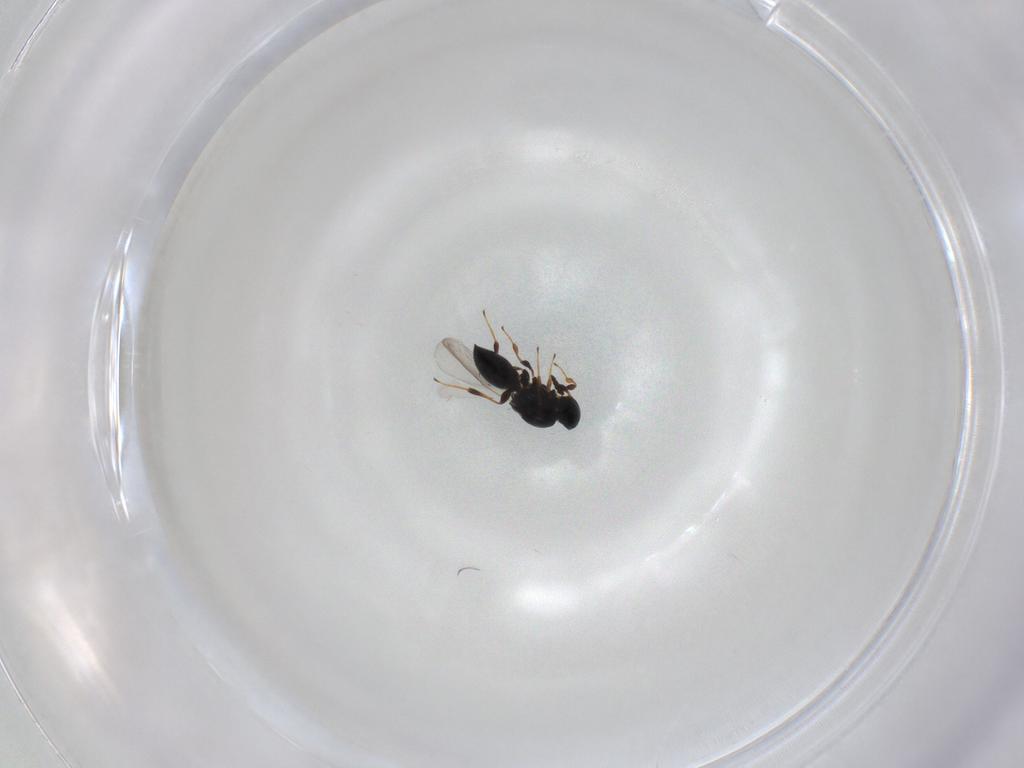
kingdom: Animalia
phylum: Arthropoda
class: Insecta
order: Hymenoptera
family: Platygastridae
